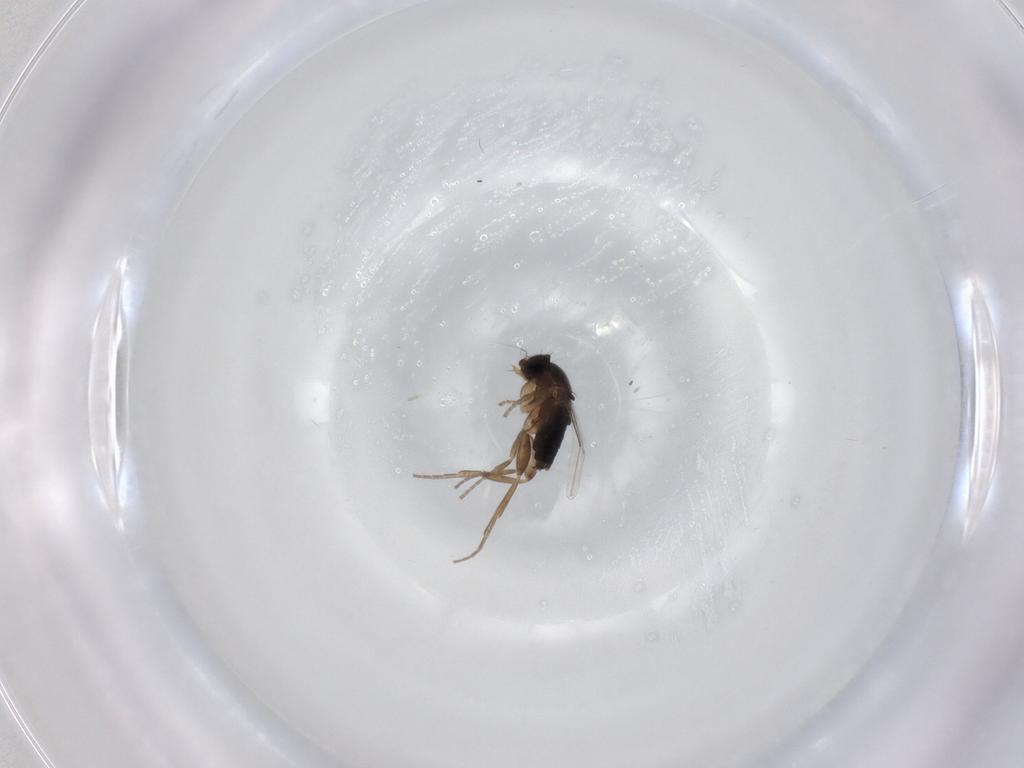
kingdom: Animalia
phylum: Arthropoda
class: Insecta
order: Diptera
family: Phoridae
